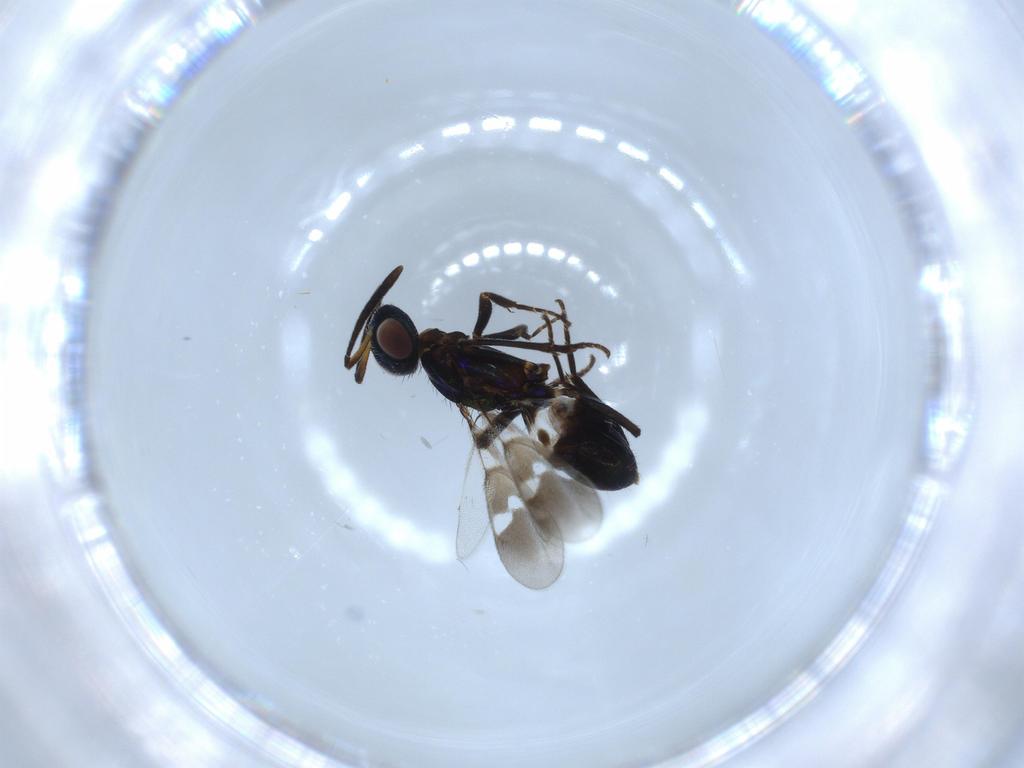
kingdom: Animalia
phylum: Arthropoda
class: Insecta
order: Hymenoptera
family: Eupelmidae
